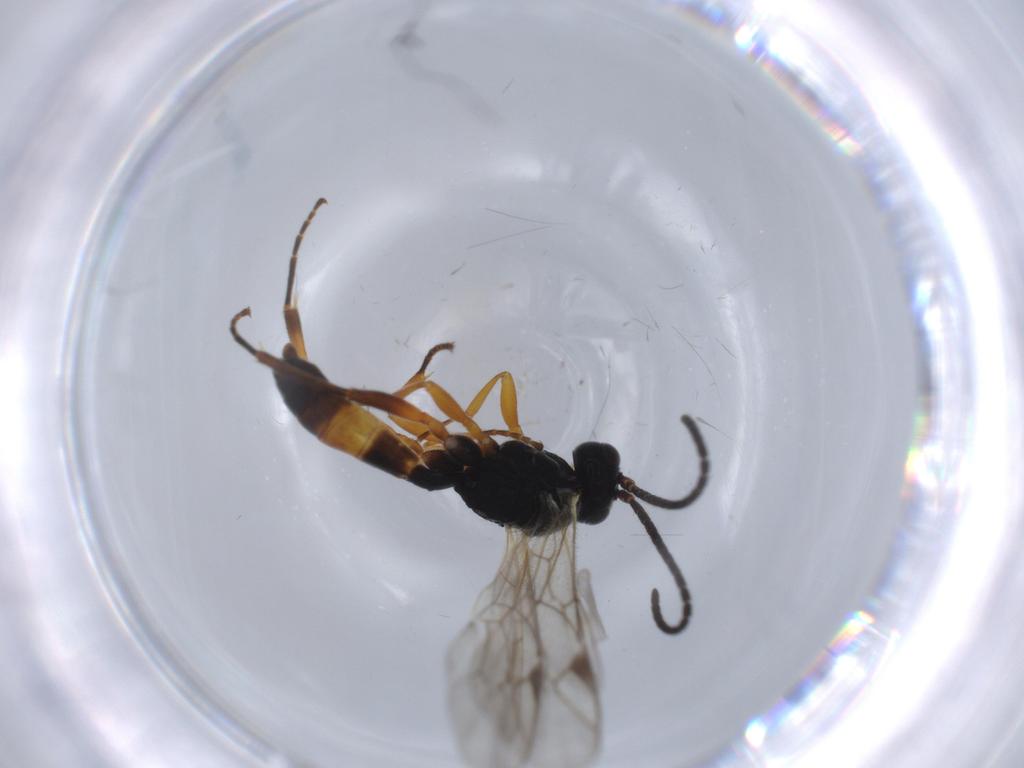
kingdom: Animalia
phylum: Arthropoda
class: Insecta
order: Hymenoptera
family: Ichneumonidae
